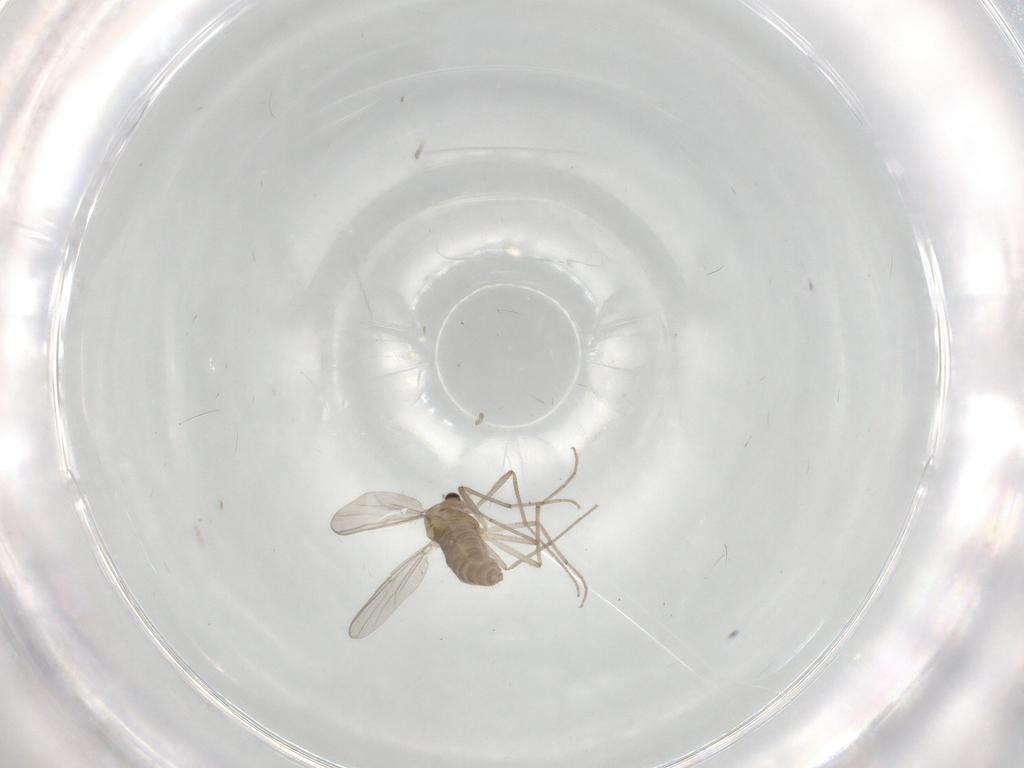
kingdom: Animalia
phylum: Arthropoda
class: Insecta
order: Diptera
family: Chironomidae
